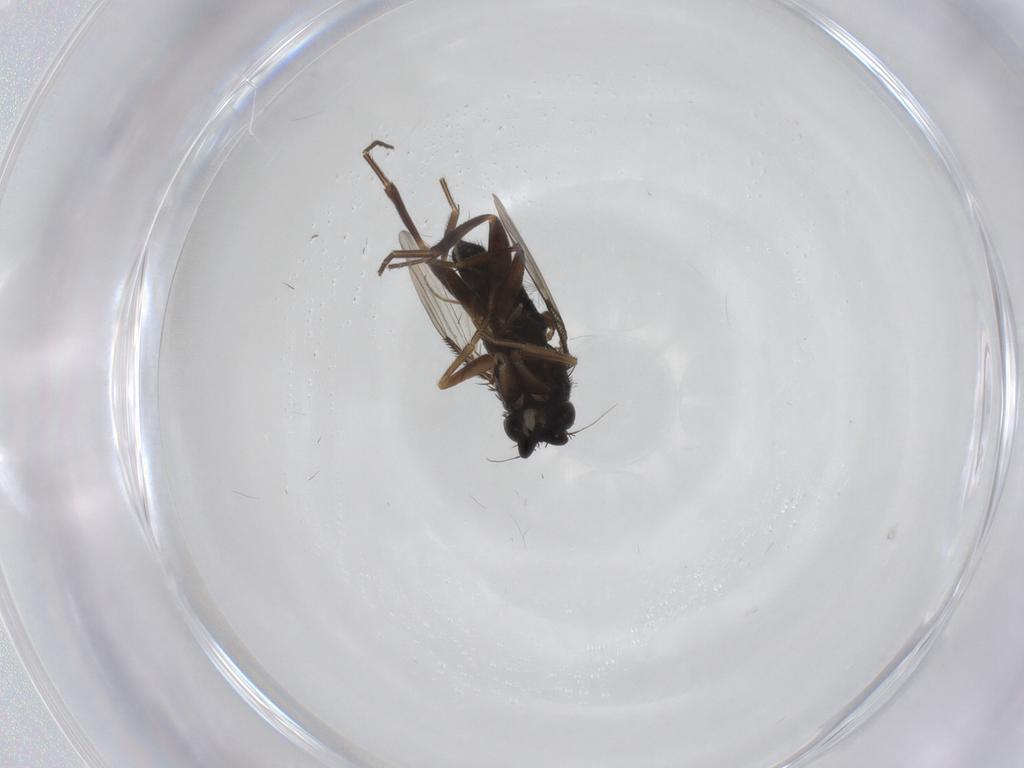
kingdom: Animalia
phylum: Arthropoda
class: Insecta
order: Diptera
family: Phoridae
